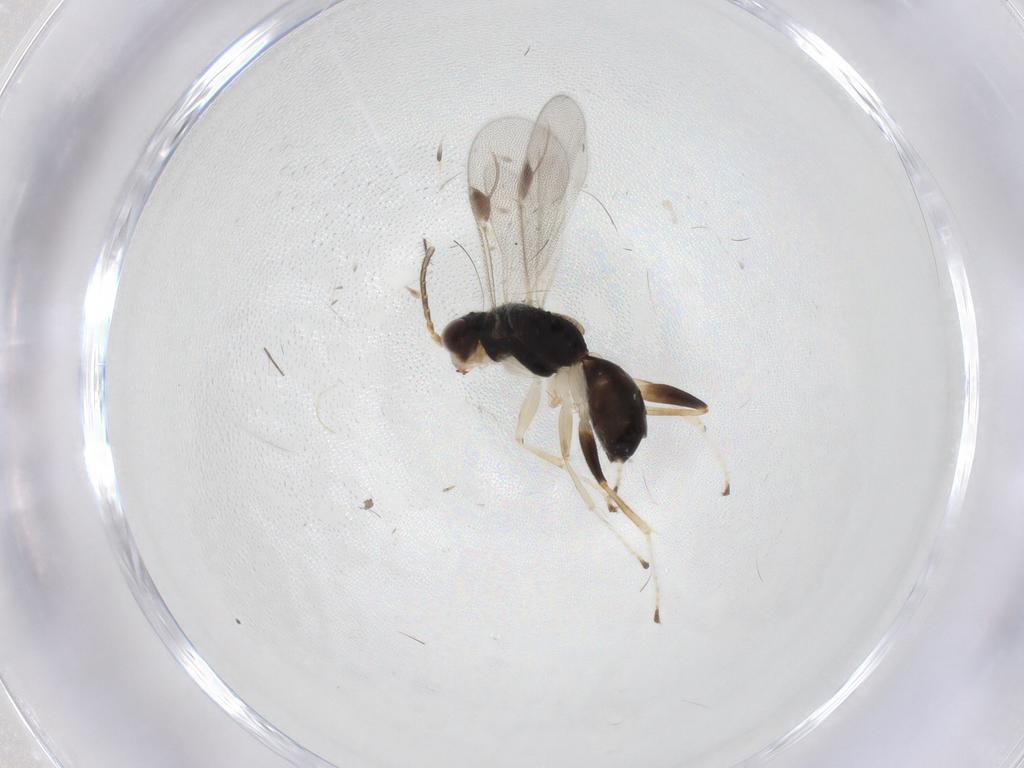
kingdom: Animalia
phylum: Arthropoda
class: Insecta
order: Hymenoptera
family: Dryinidae
